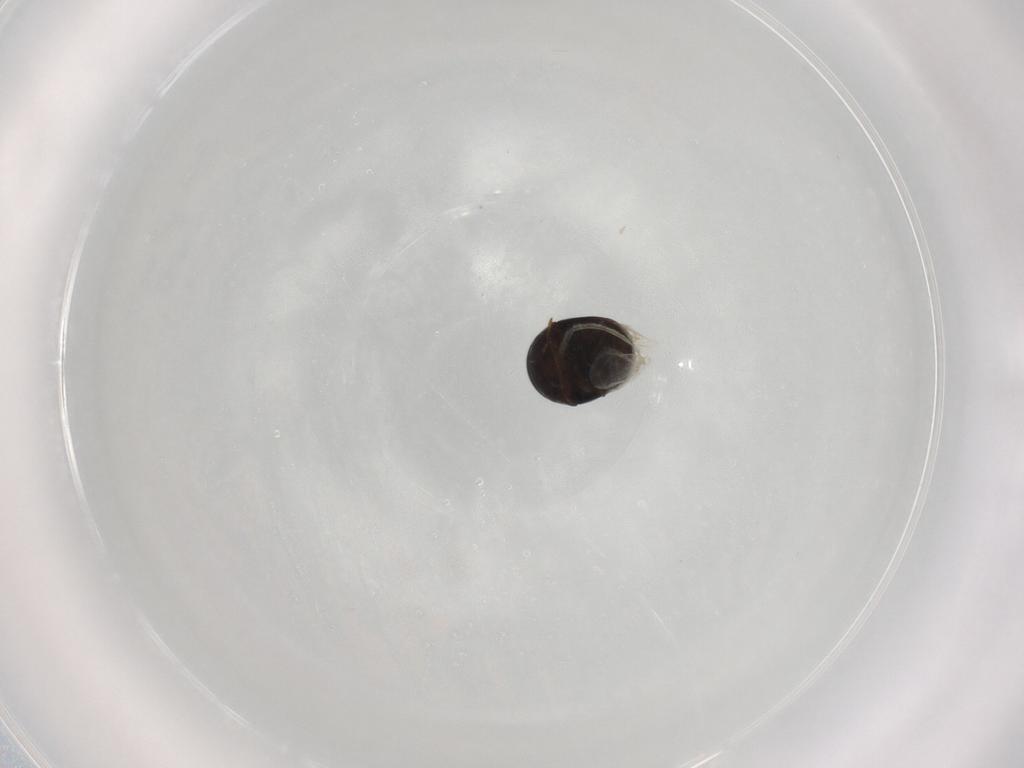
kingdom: Animalia
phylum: Arthropoda
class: Insecta
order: Coleoptera
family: Cybocephalidae
